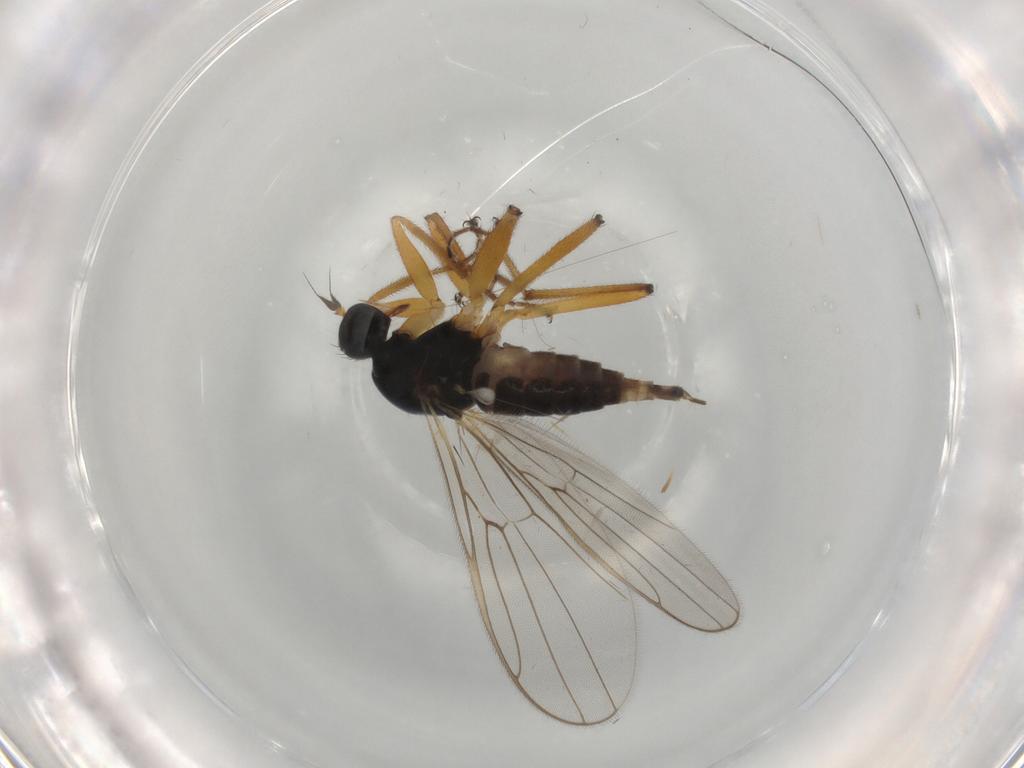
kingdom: Animalia
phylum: Arthropoda
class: Insecta
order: Diptera
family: Hybotidae
